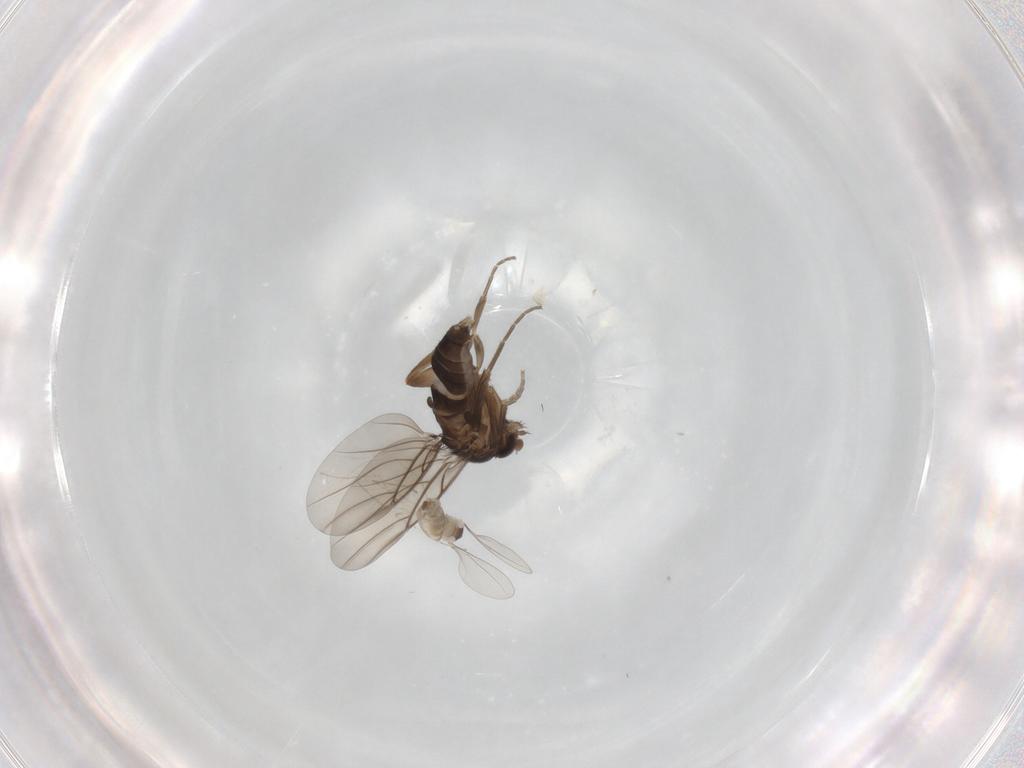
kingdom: Animalia
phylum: Arthropoda
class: Insecta
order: Diptera
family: Phoridae
